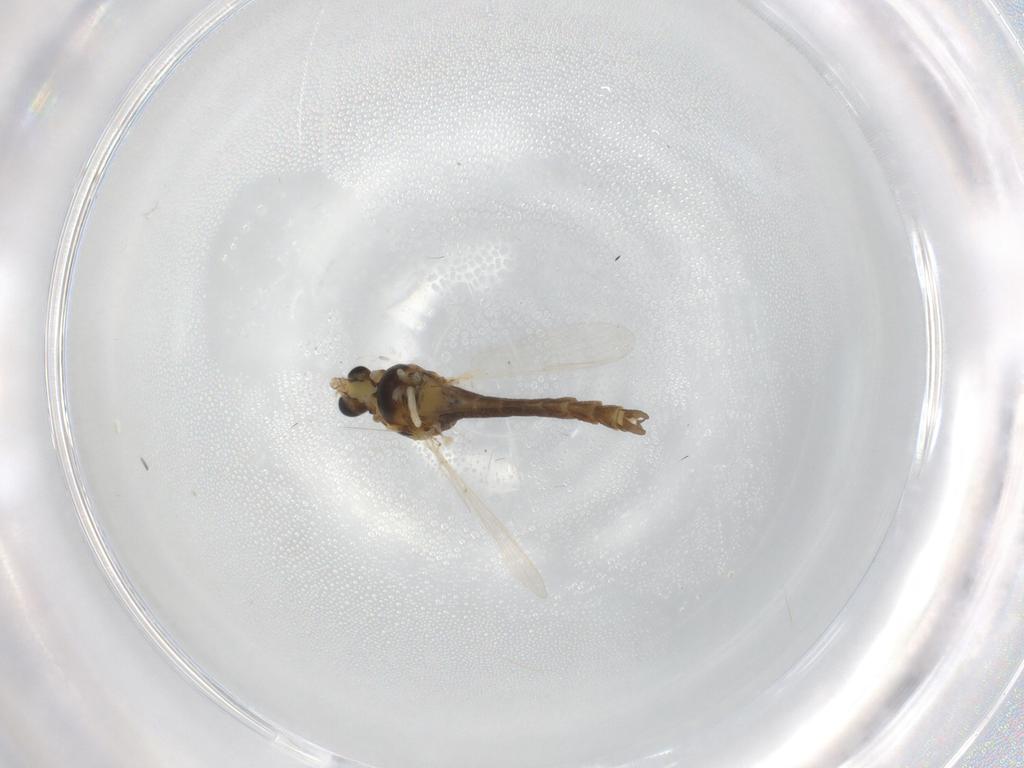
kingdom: Animalia
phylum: Arthropoda
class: Insecta
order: Diptera
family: Chironomidae
